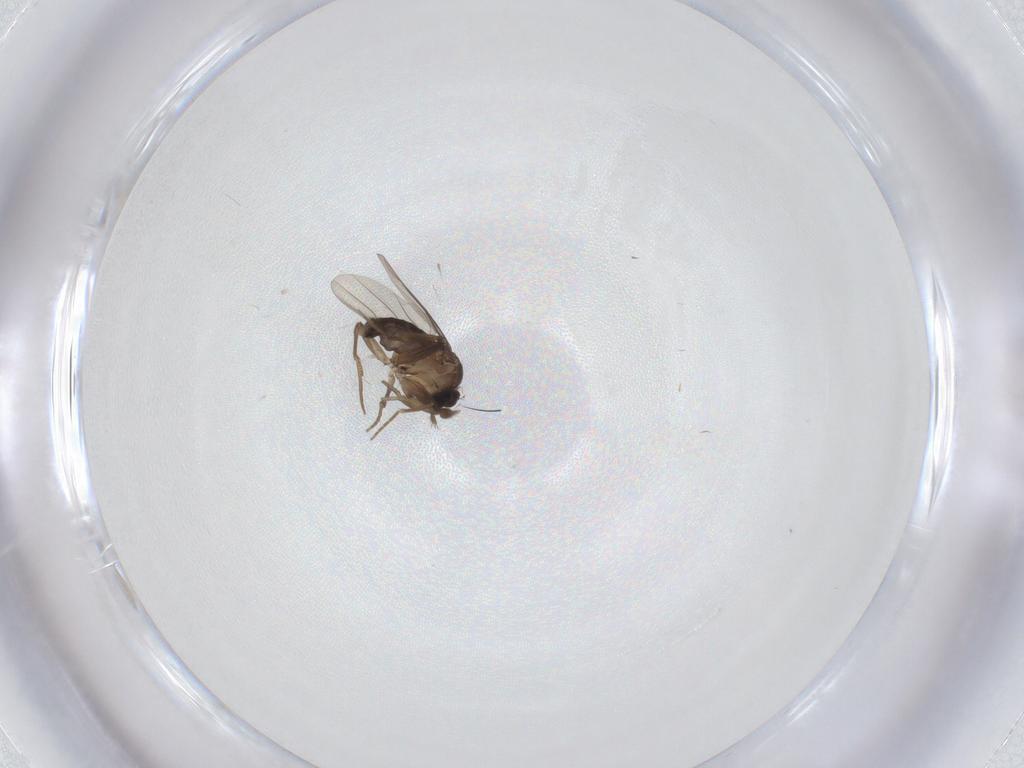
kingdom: Animalia
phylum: Arthropoda
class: Insecta
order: Diptera
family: Phoridae
